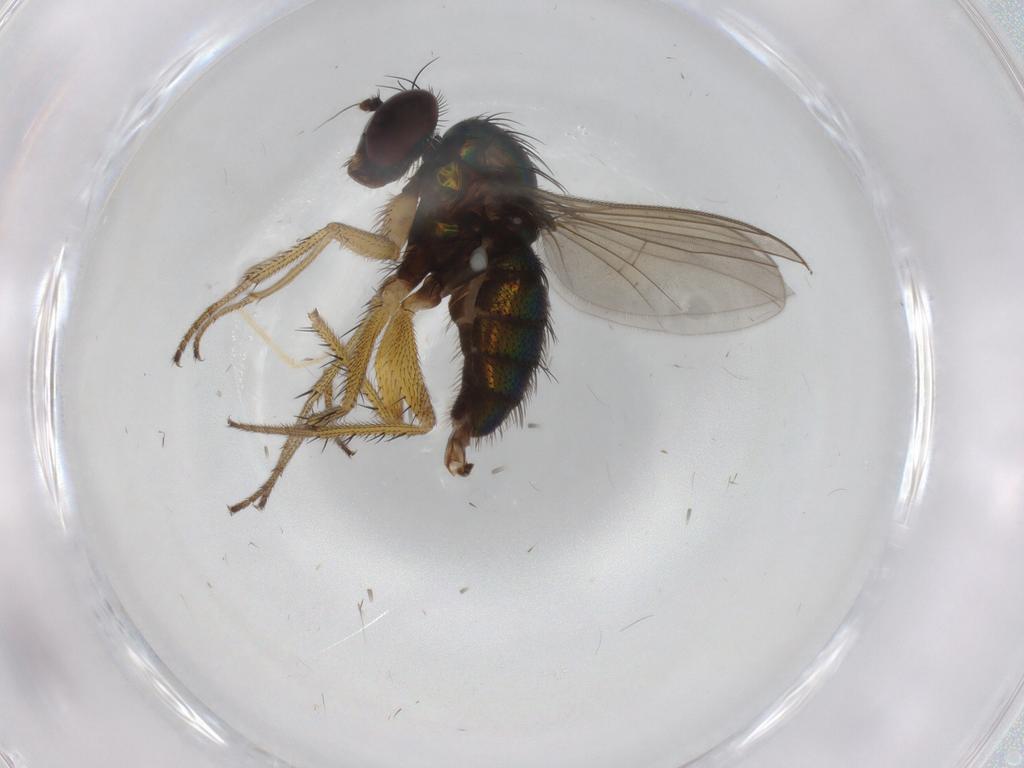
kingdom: Animalia
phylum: Arthropoda
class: Insecta
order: Diptera
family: Dolichopodidae
